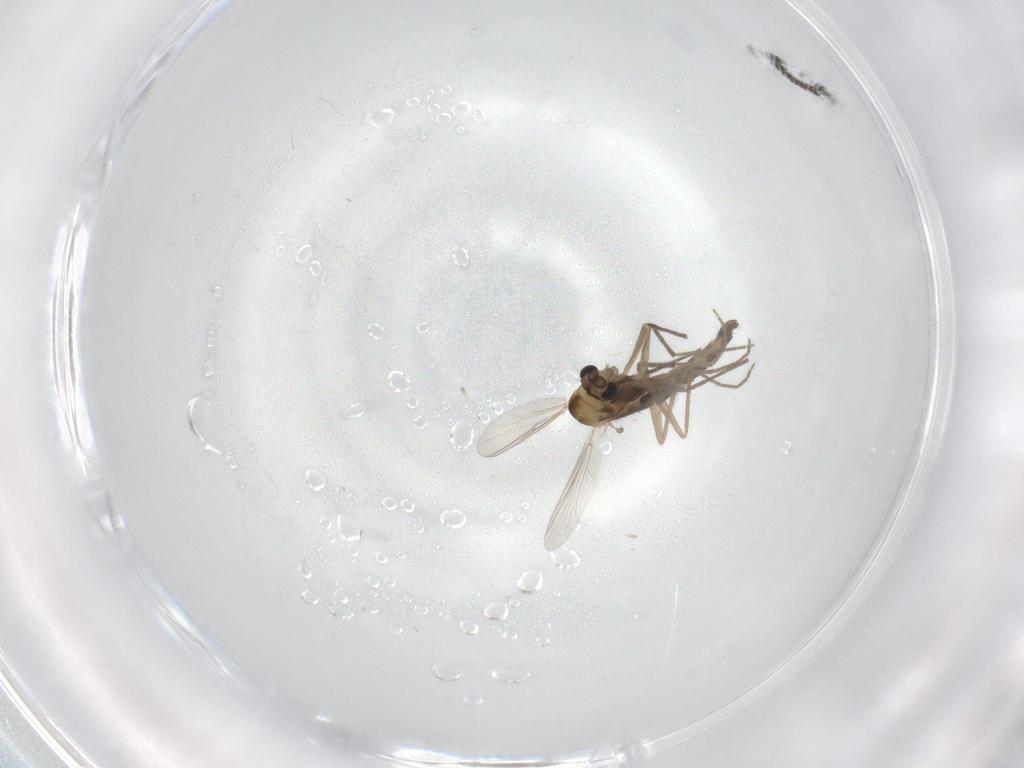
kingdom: Animalia
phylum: Arthropoda
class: Insecta
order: Diptera
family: Chironomidae
